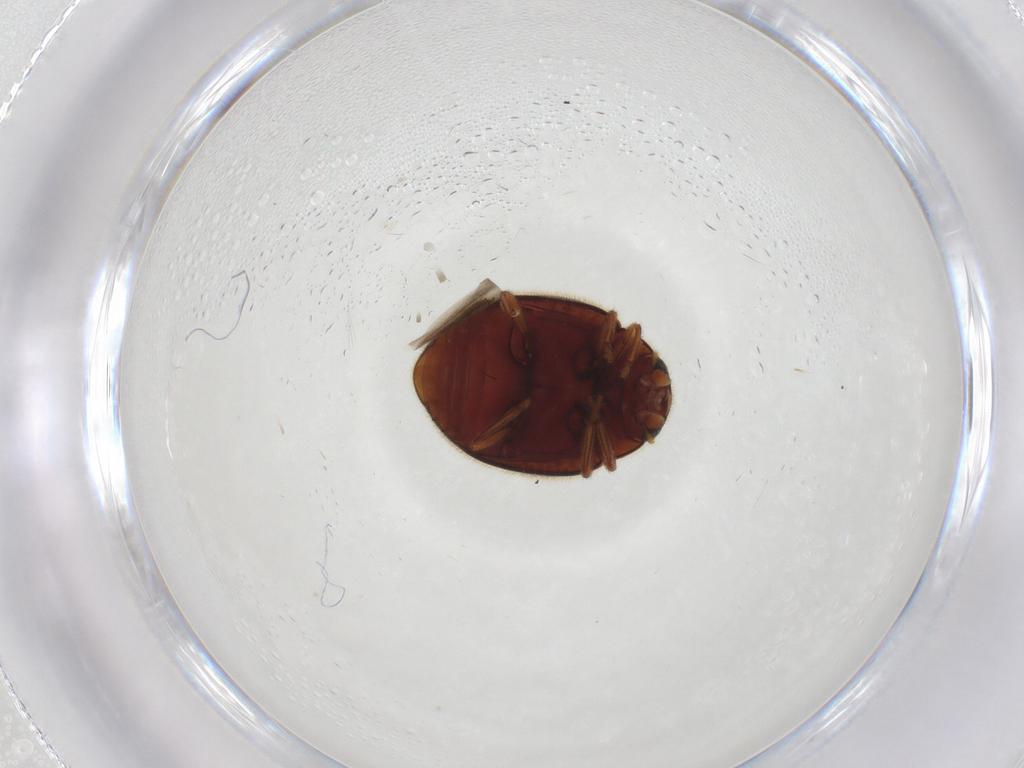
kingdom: Animalia
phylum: Arthropoda
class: Insecta
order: Coleoptera
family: Coccinellidae
